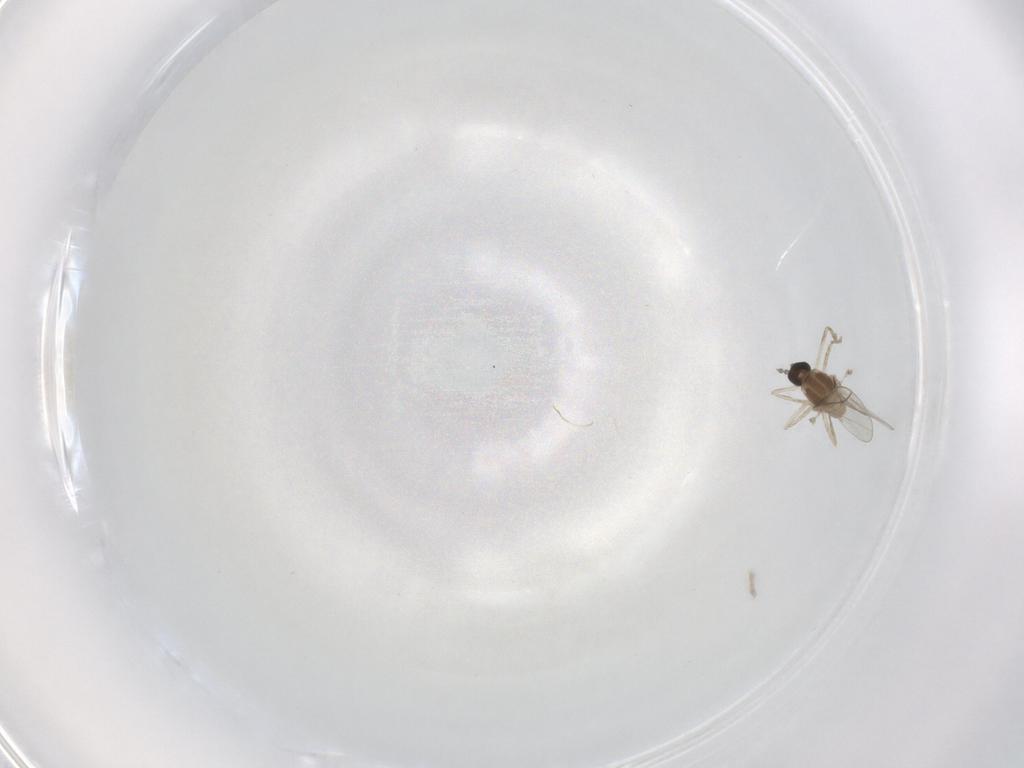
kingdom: Animalia
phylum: Arthropoda
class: Insecta
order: Diptera
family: Cecidomyiidae
